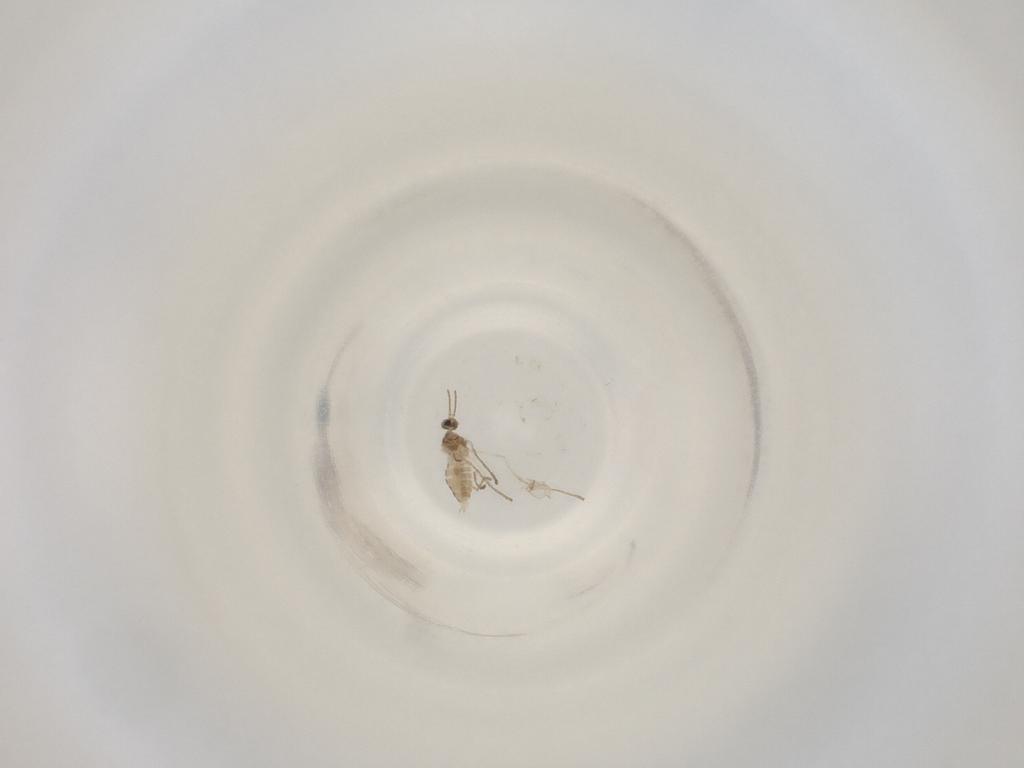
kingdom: Animalia
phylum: Arthropoda
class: Insecta
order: Diptera
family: Cecidomyiidae
